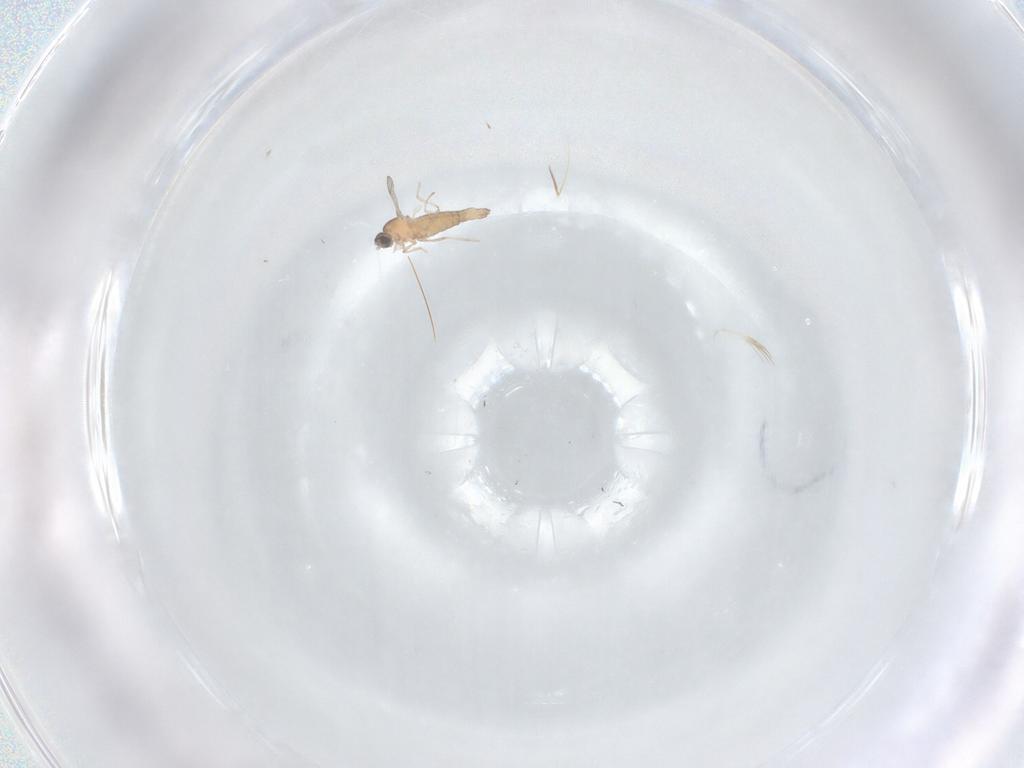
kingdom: Animalia
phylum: Arthropoda
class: Insecta
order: Diptera
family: Cecidomyiidae
